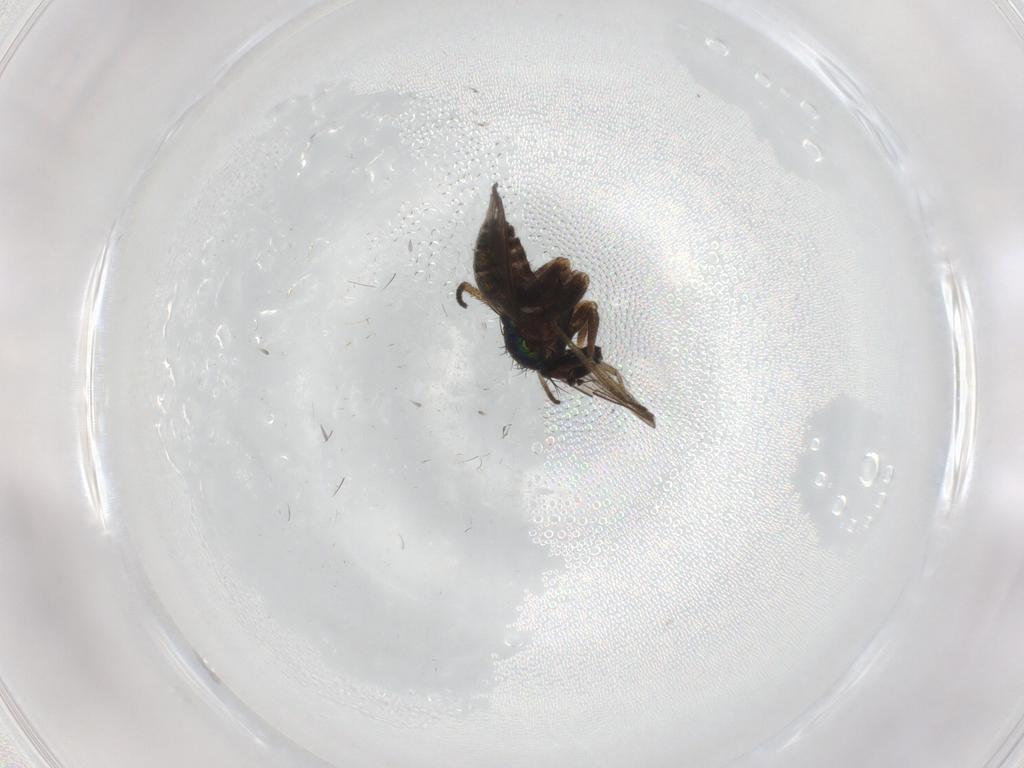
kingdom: Animalia
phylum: Arthropoda
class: Insecta
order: Diptera
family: Dolichopodidae
